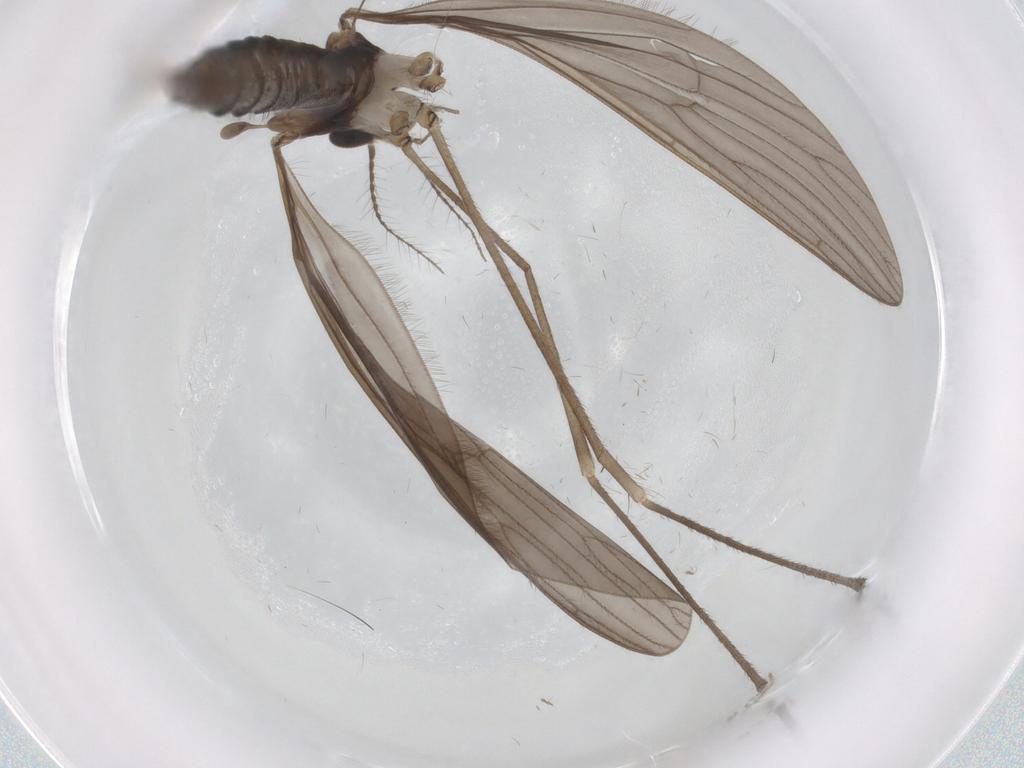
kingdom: Animalia
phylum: Arthropoda
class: Insecta
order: Diptera
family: Limoniidae
